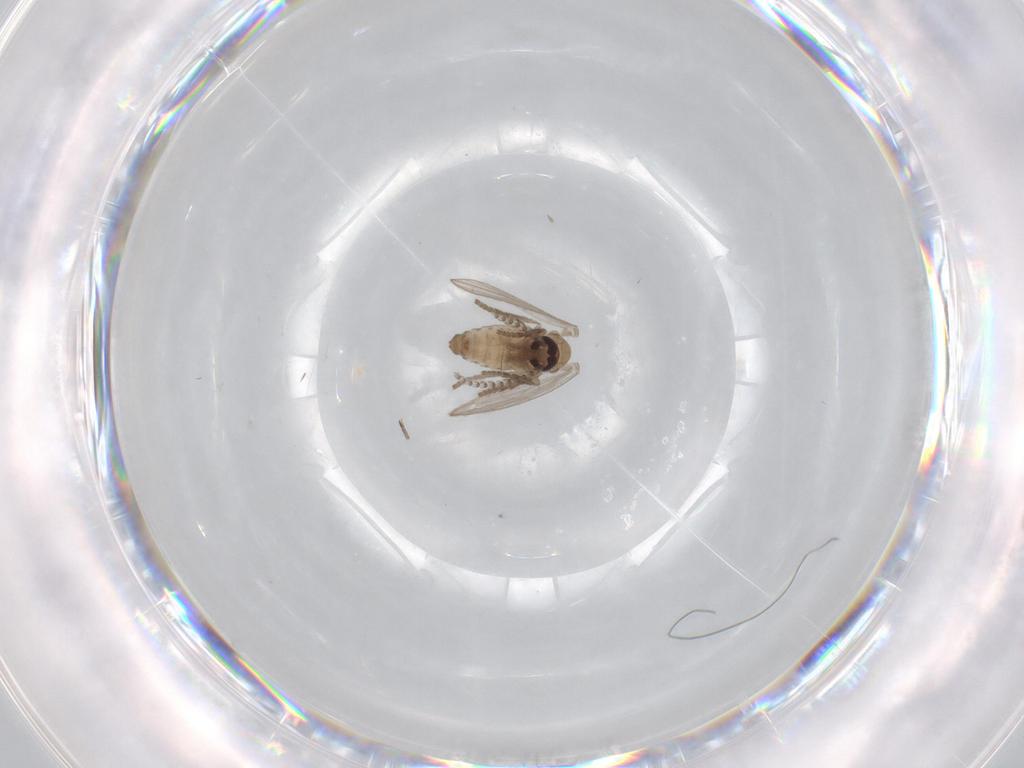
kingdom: Animalia
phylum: Arthropoda
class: Insecta
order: Diptera
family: Psychodidae
